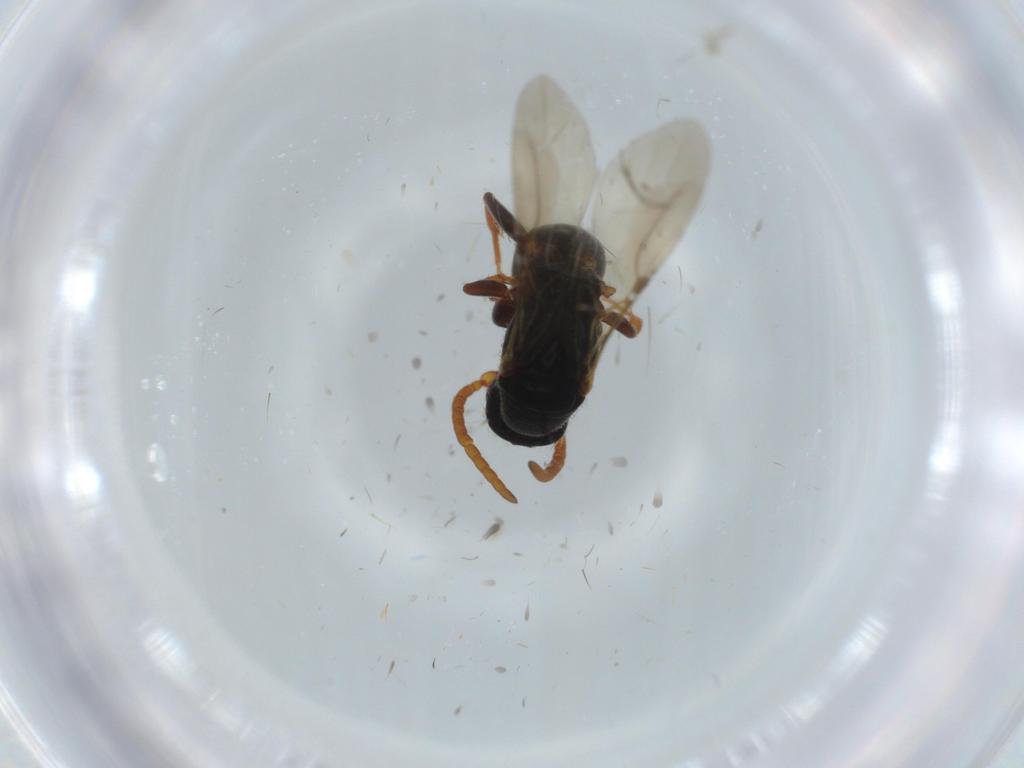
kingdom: Animalia
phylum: Arthropoda
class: Insecta
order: Hymenoptera
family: Bethylidae
